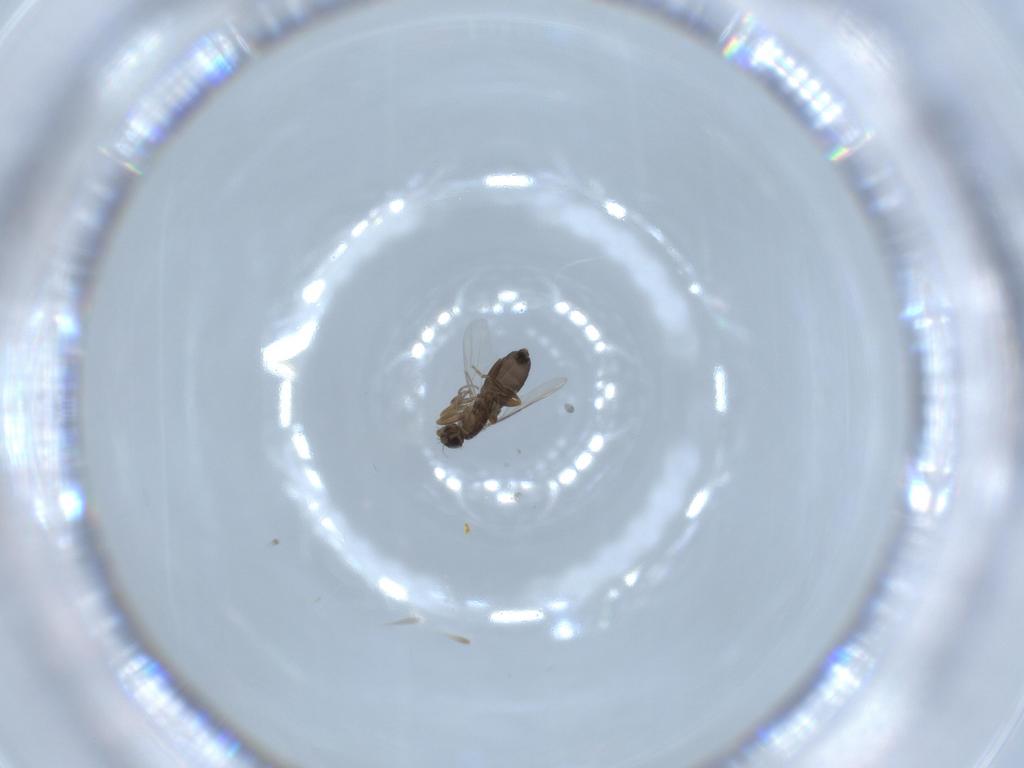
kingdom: Animalia
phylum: Arthropoda
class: Insecta
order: Diptera
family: Phoridae
